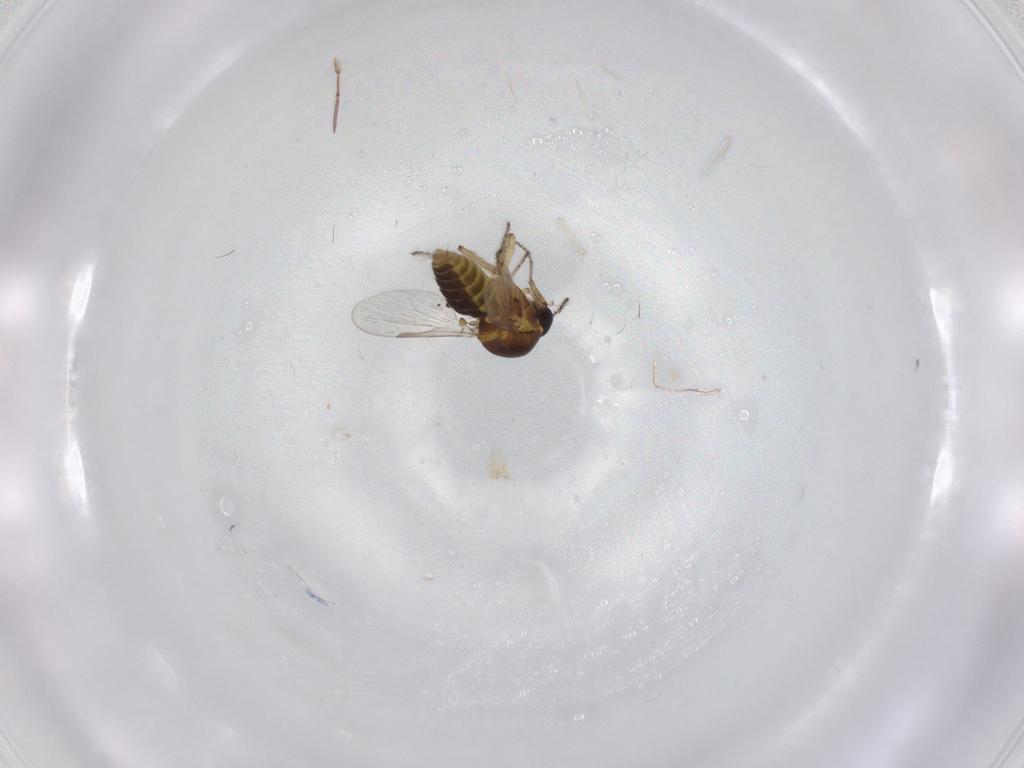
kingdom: Animalia
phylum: Arthropoda
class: Insecta
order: Diptera
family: Ceratopogonidae
